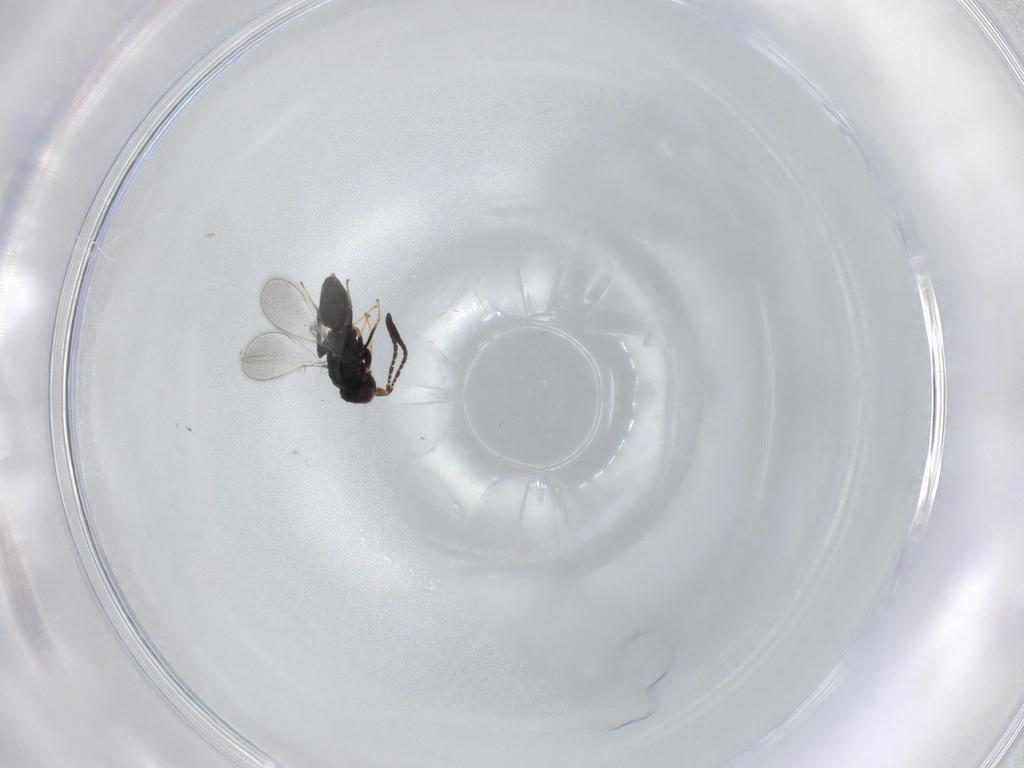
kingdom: Animalia
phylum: Arthropoda
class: Insecta
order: Hymenoptera
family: Mymaridae
